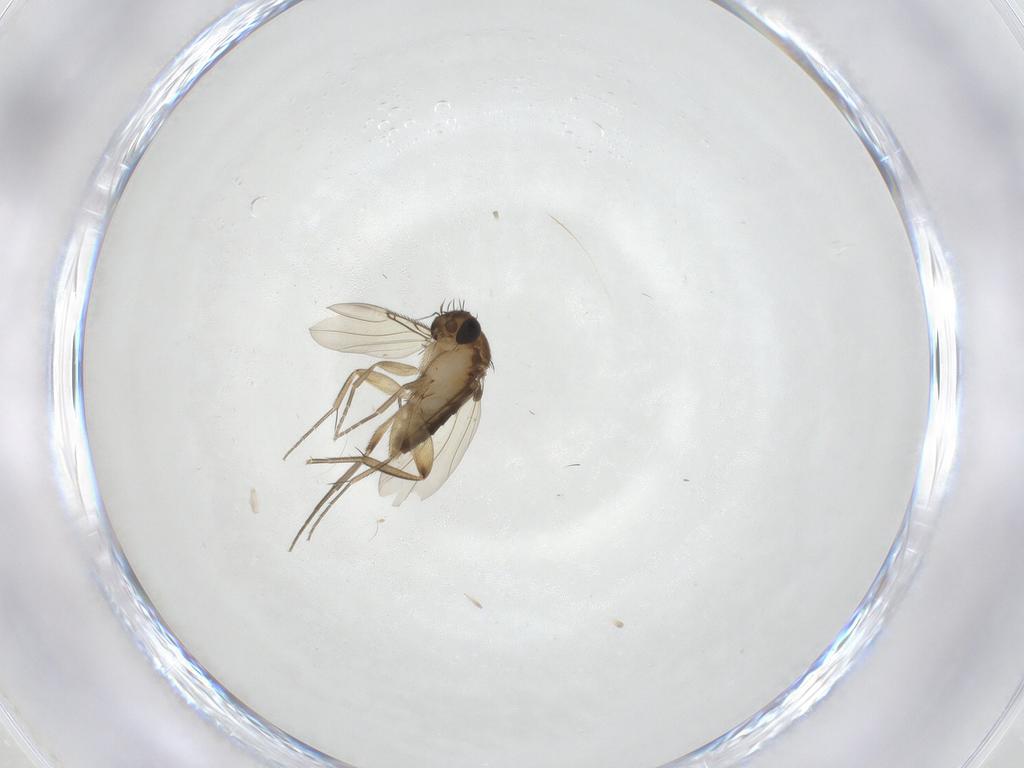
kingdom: Animalia
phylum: Arthropoda
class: Insecta
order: Diptera
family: Phoridae
